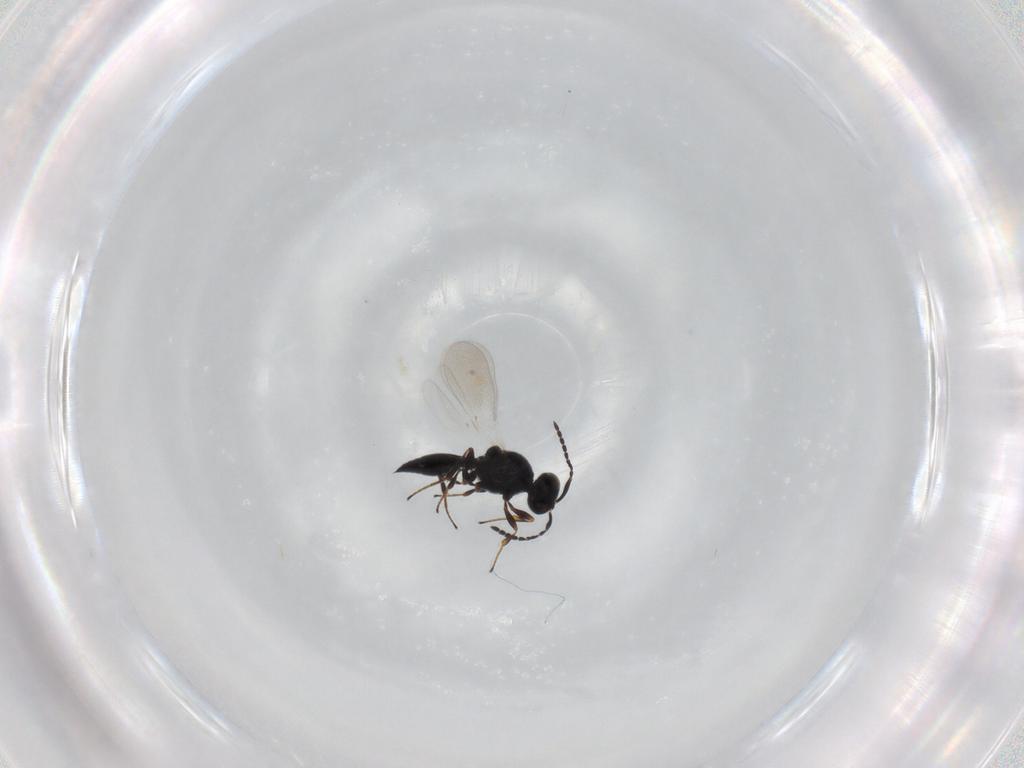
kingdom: Animalia
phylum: Arthropoda
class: Insecta
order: Hymenoptera
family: Platygastridae
